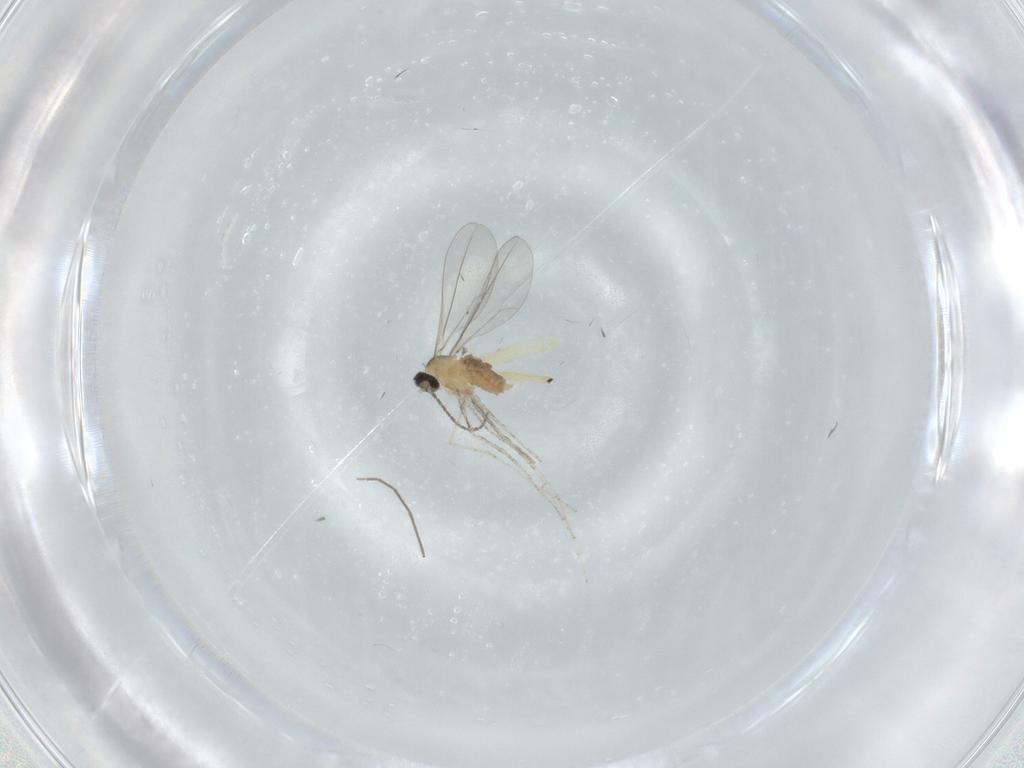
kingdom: Animalia
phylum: Arthropoda
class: Insecta
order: Diptera
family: Cecidomyiidae
